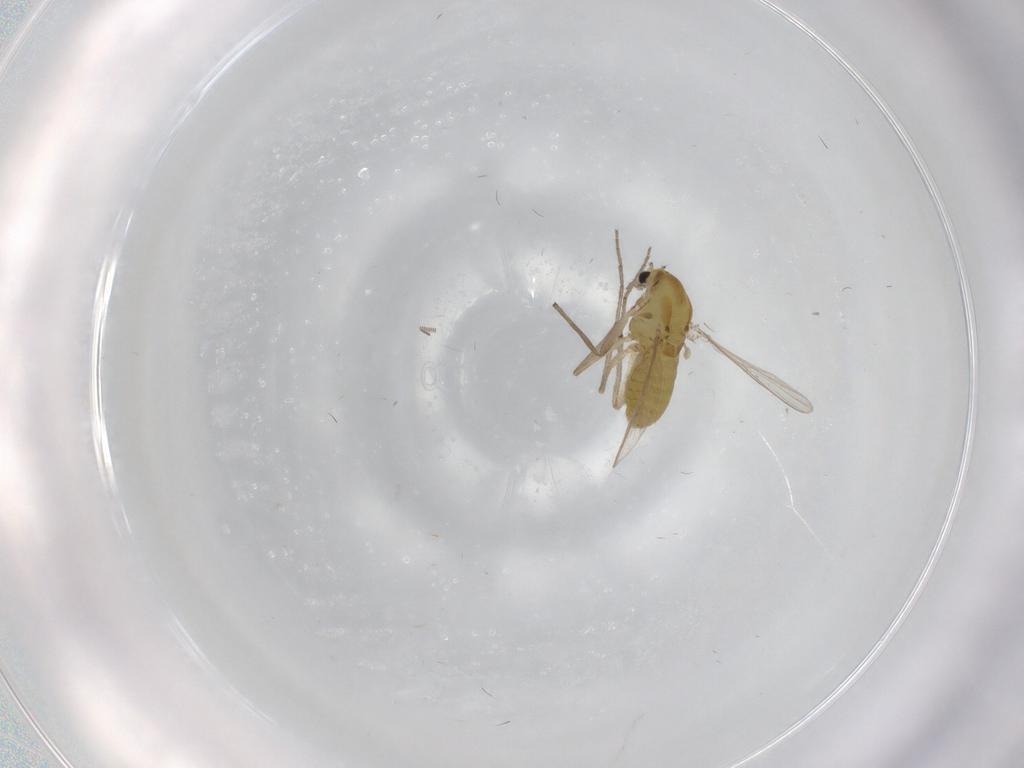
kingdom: Animalia
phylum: Arthropoda
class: Insecta
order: Diptera
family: Chironomidae
